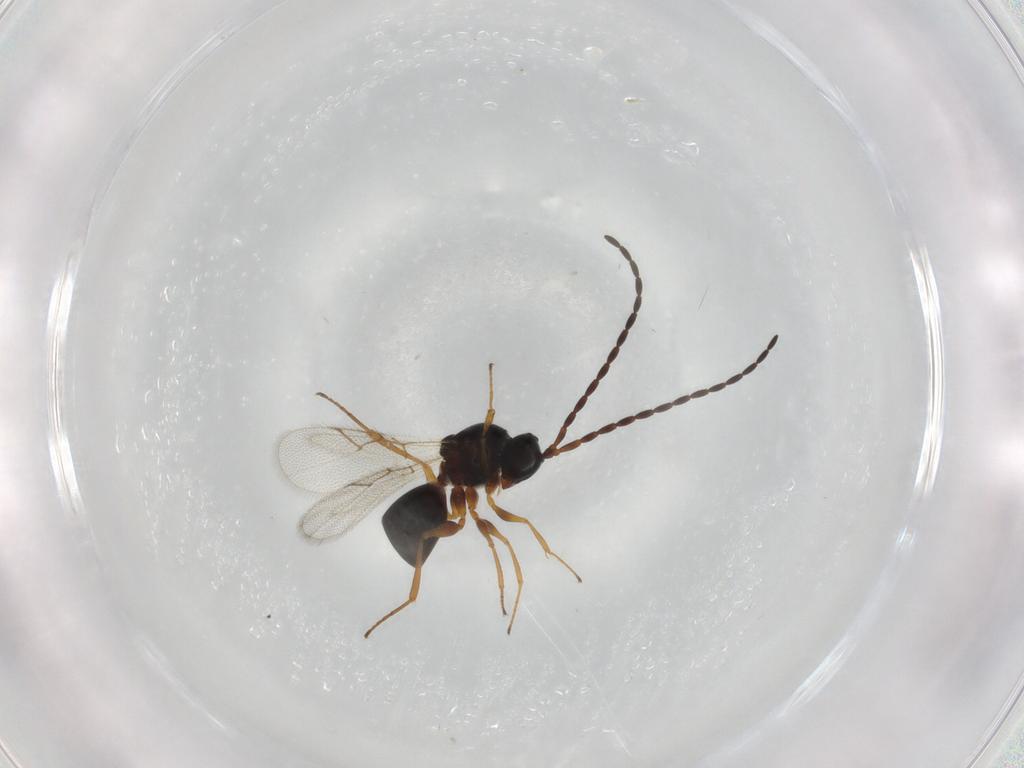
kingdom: Animalia
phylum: Arthropoda
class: Insecta
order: Hymenoptera
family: Figitidae
